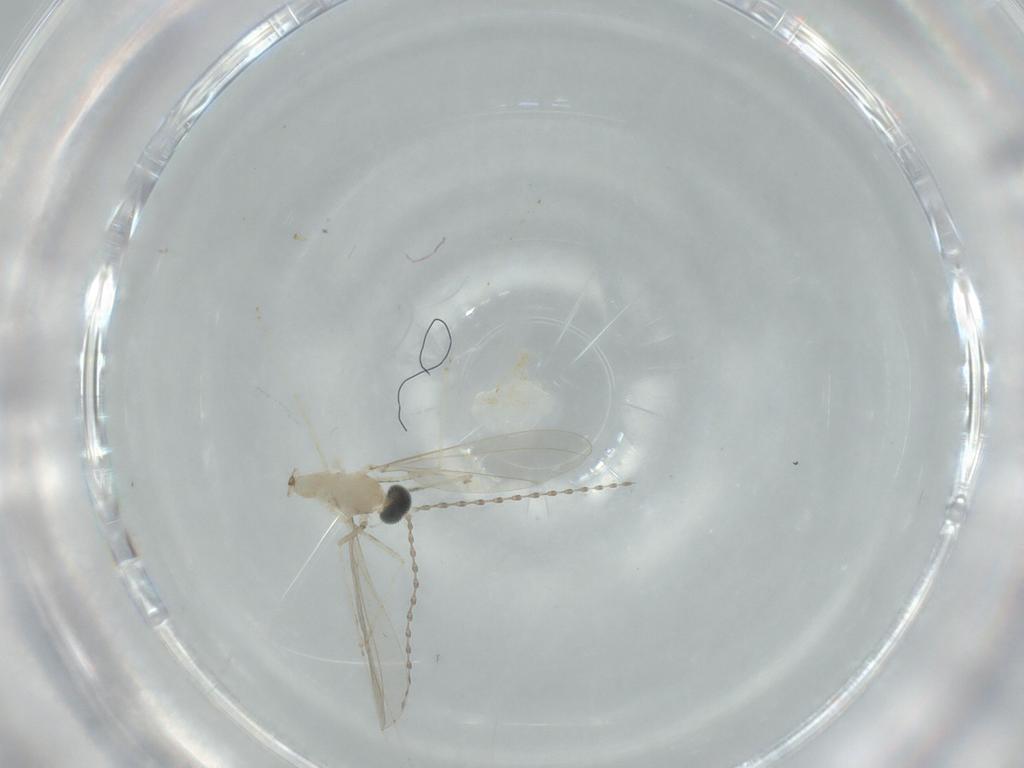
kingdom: Animalia
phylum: Arthropoda
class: Insecta
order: Diptera
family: Cecidomyiidae
